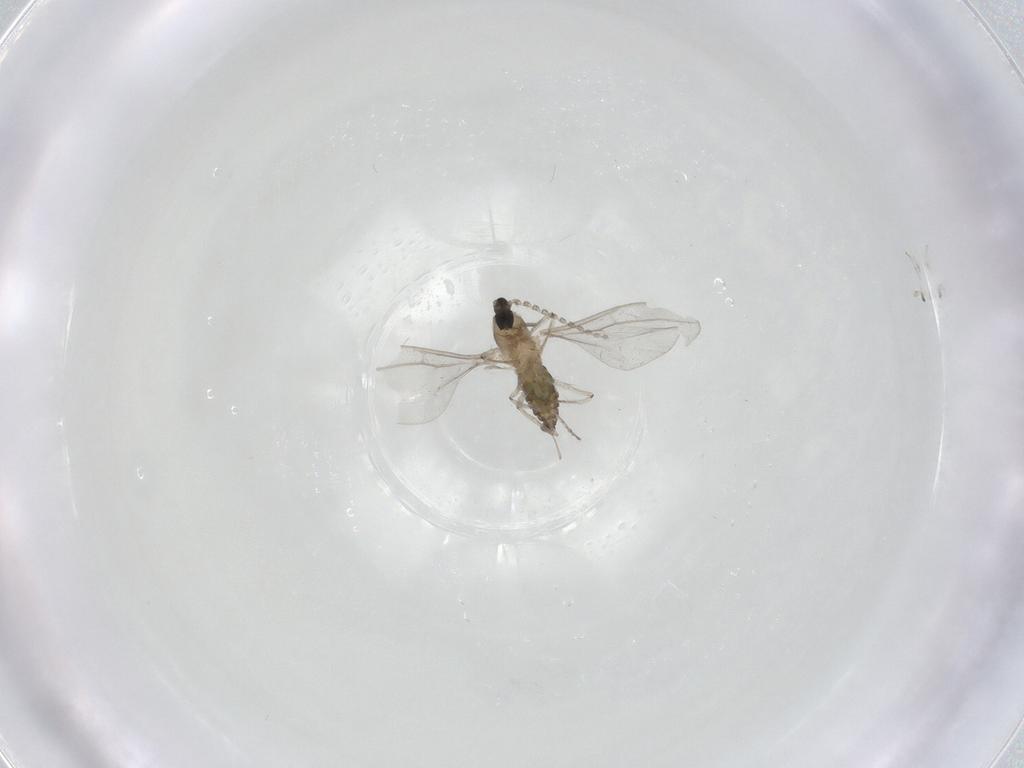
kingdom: Animalia
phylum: Arthropoda
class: Insecta
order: Diptera
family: Cecidomyiidae
